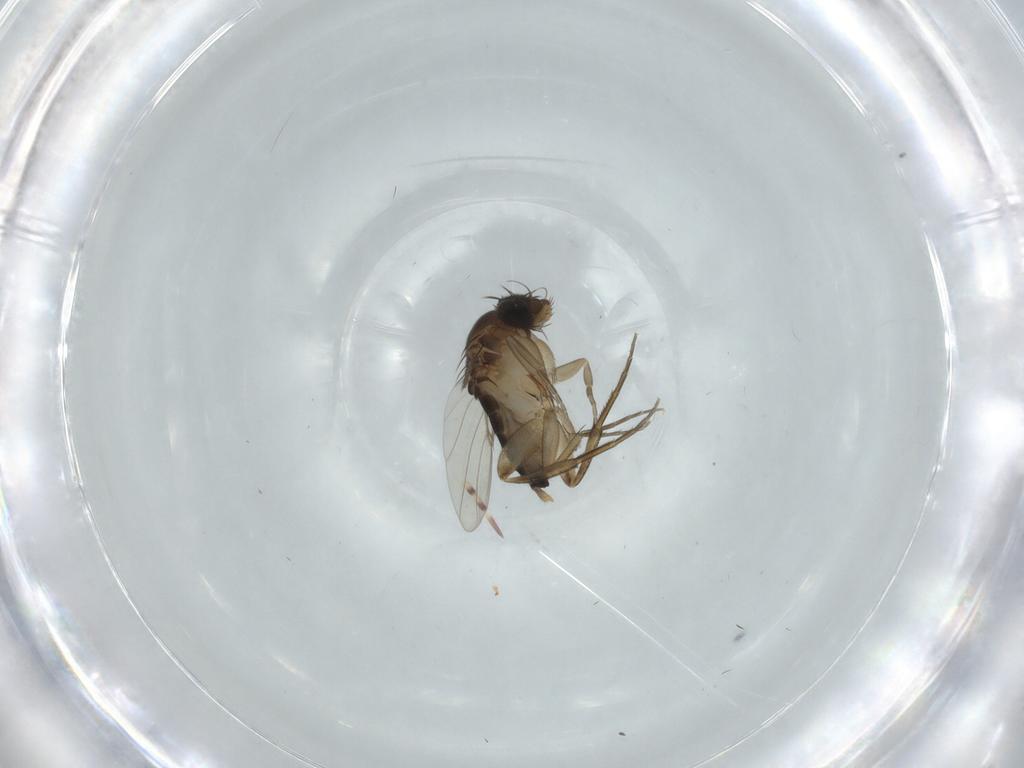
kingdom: Animalia
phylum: Arthropoda
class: Insecta
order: Diptera
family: Phoridae
